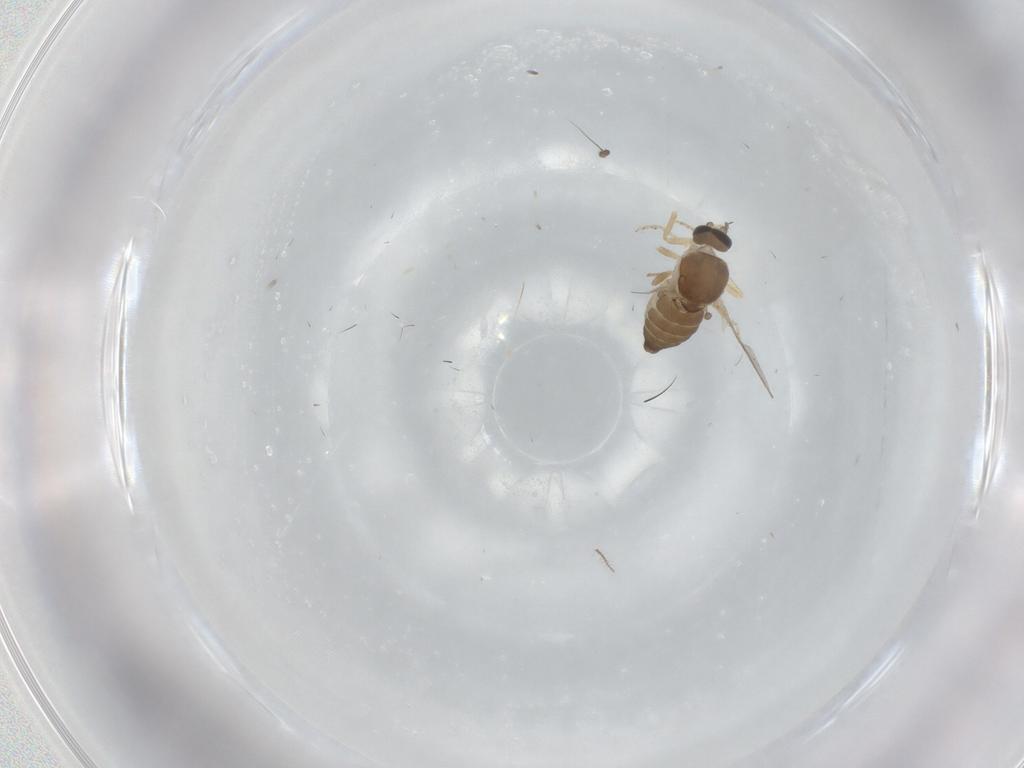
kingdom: Animalia
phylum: Arthropoda
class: Insecta
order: Diptera
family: Ceratopogonidae
